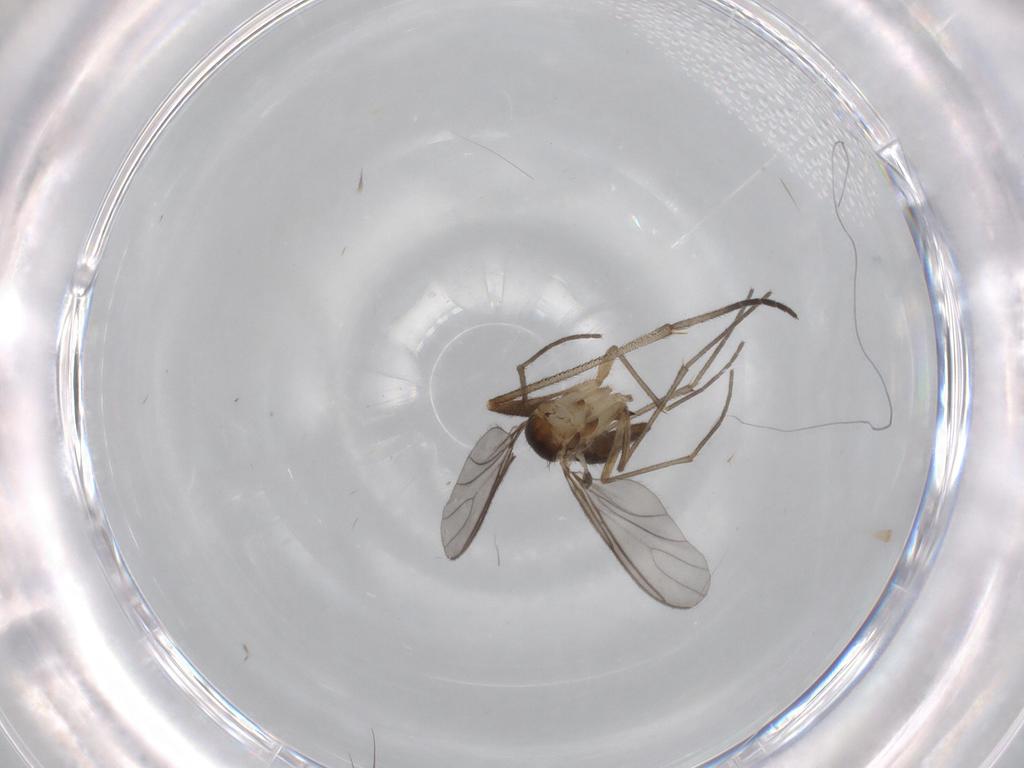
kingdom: Animalia
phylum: Arthropoda
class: Insecta
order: Diptera
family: Sciaridae
